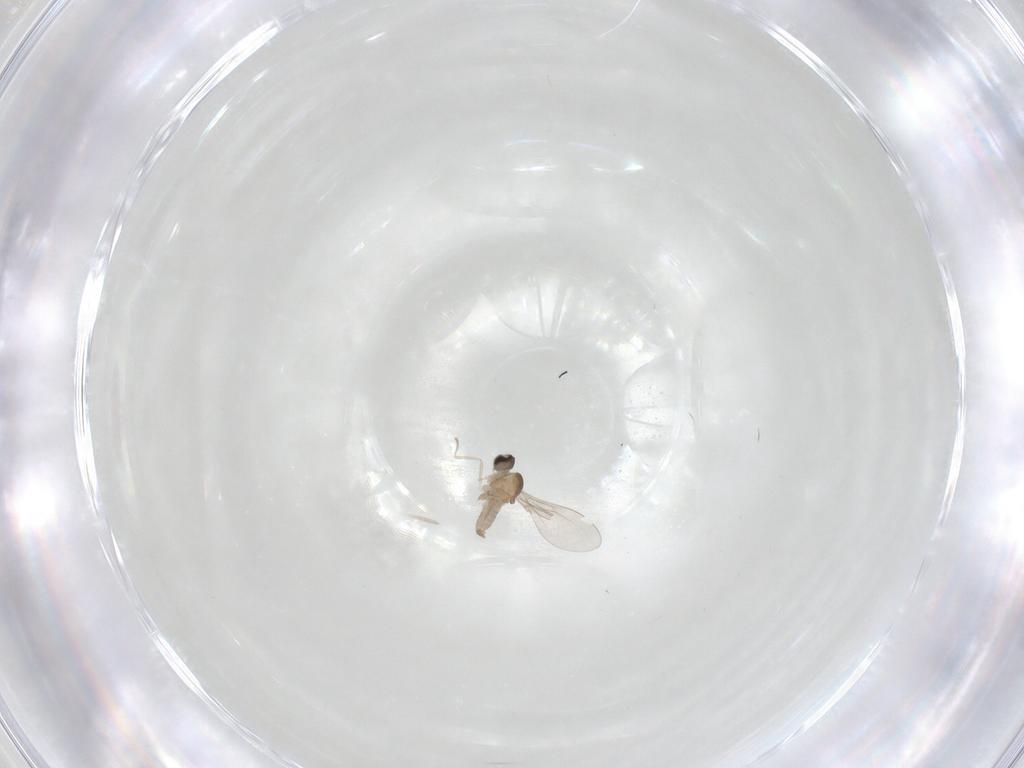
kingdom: Animalia
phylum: Arthropoda
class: Insecta
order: Diptera
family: Cecidomyiidae
